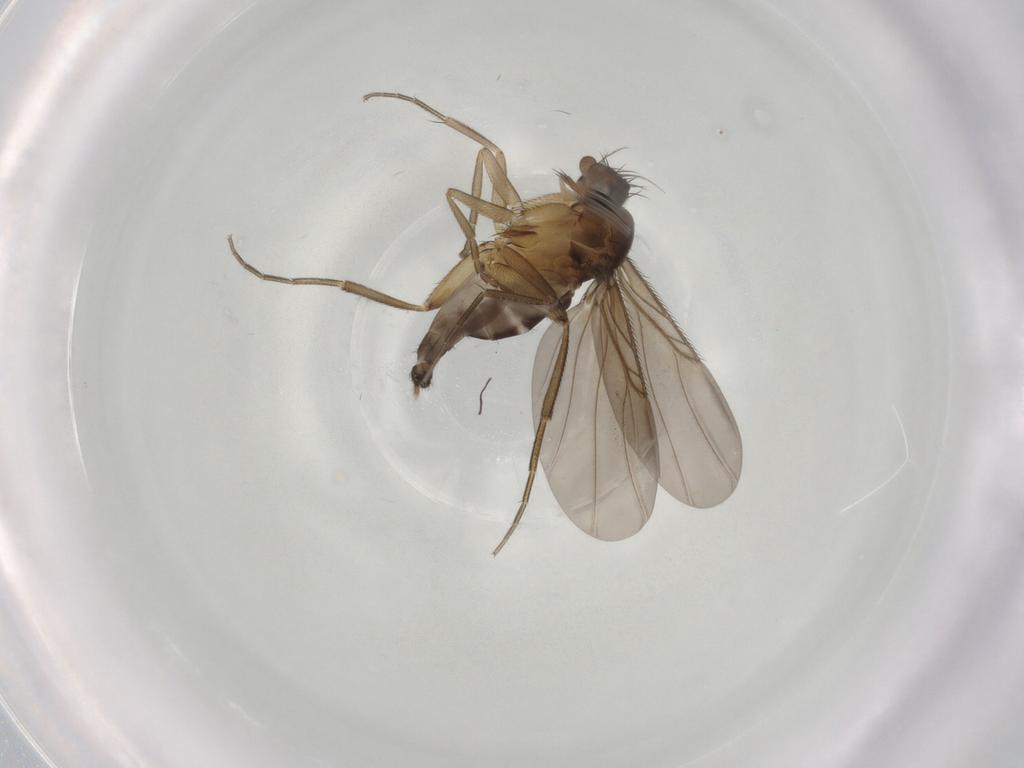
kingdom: Animalia
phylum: Arthropoda
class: Insecta
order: Diptera
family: Phoridae
